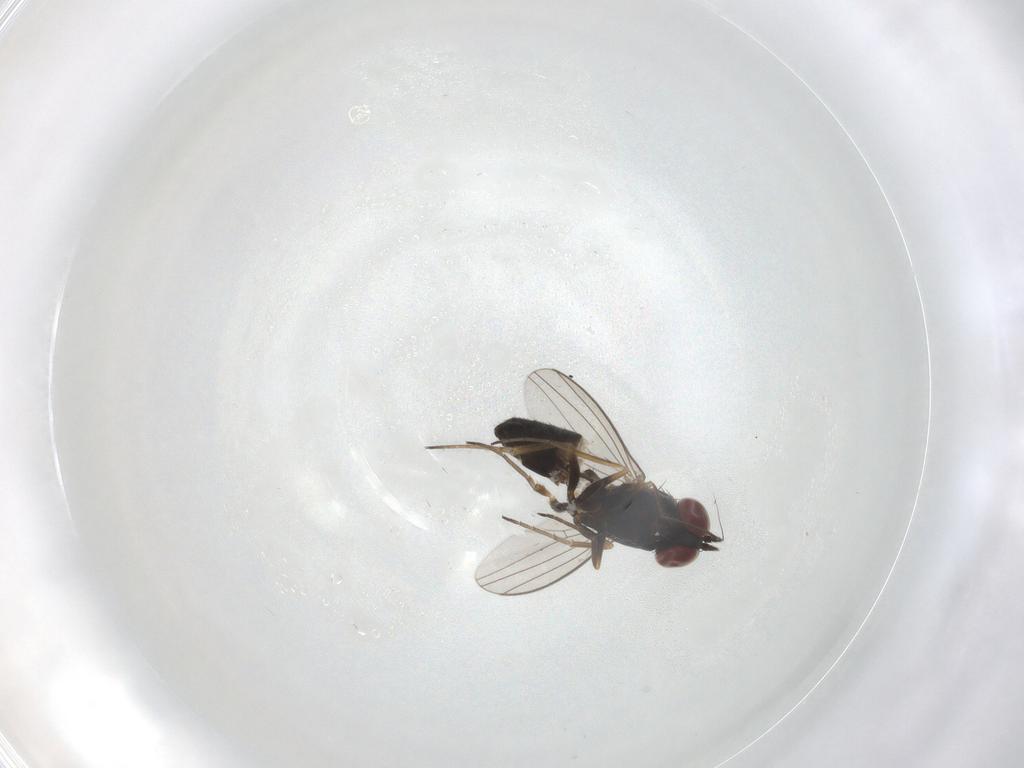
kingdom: Animalia
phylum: Arthropoda
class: Insecta
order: Diptera
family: Dolichopodidae
